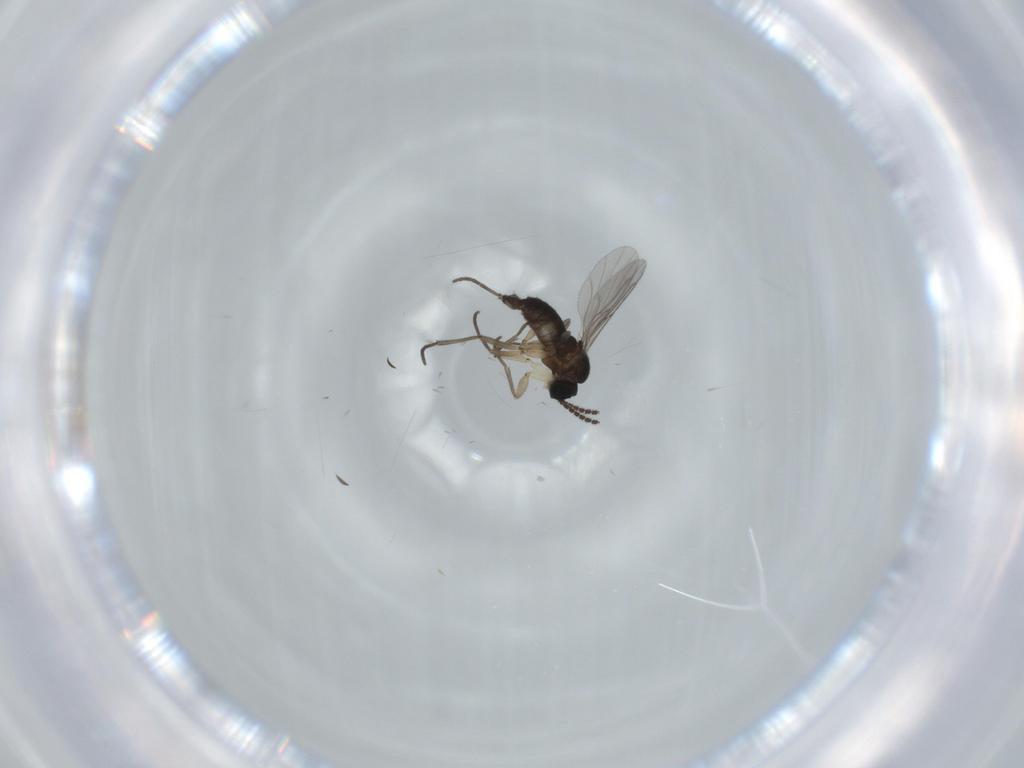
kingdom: Animalia
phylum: Arthropoda
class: Insecta
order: Diptera
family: Sciaridae
